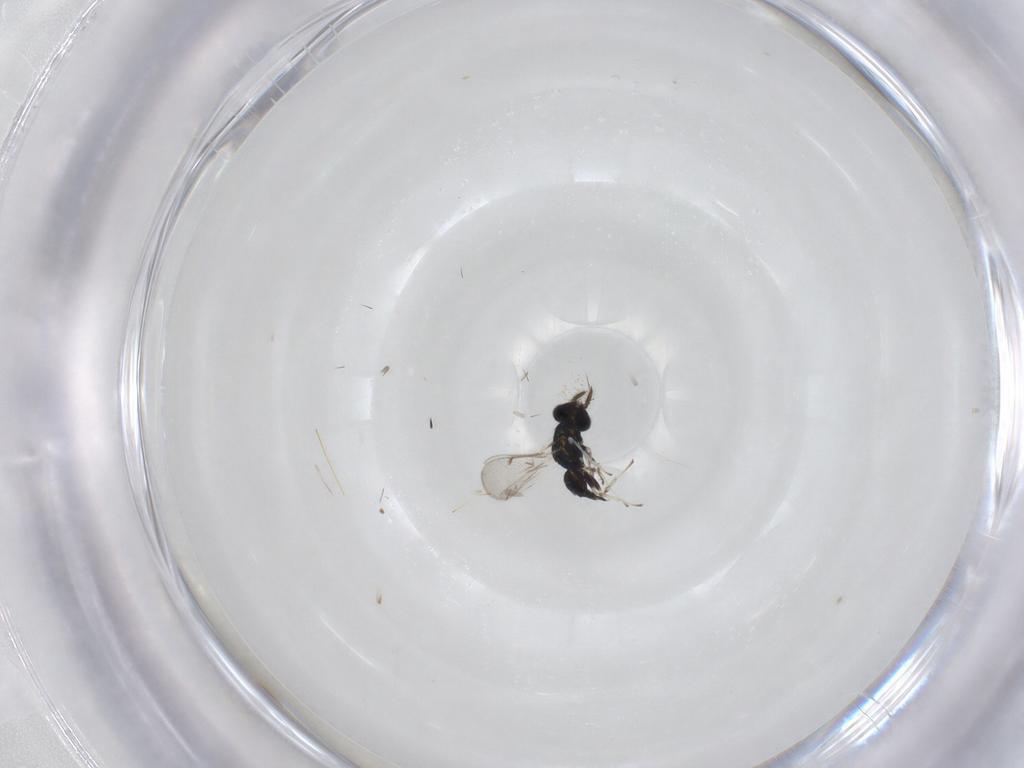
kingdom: Animalia
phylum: Arthropoda
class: Insecta
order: Hymenoptera
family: Eulophidae
